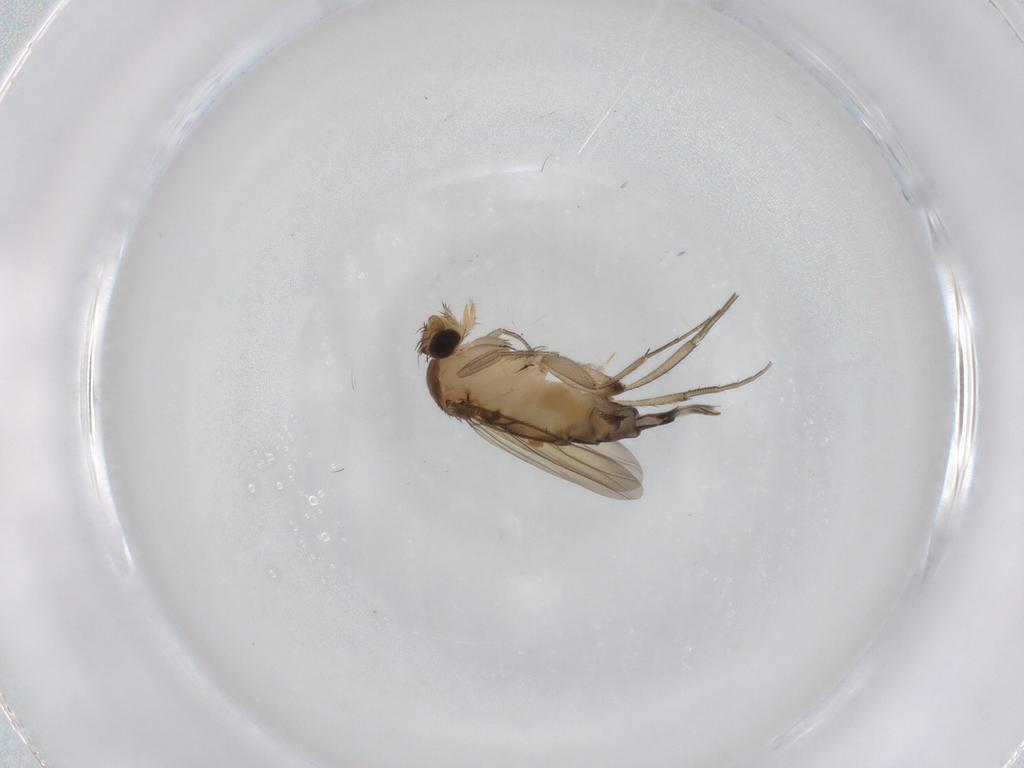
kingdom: Animalia
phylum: Arthropoda
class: Insecta
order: Diptera
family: Phoridae
